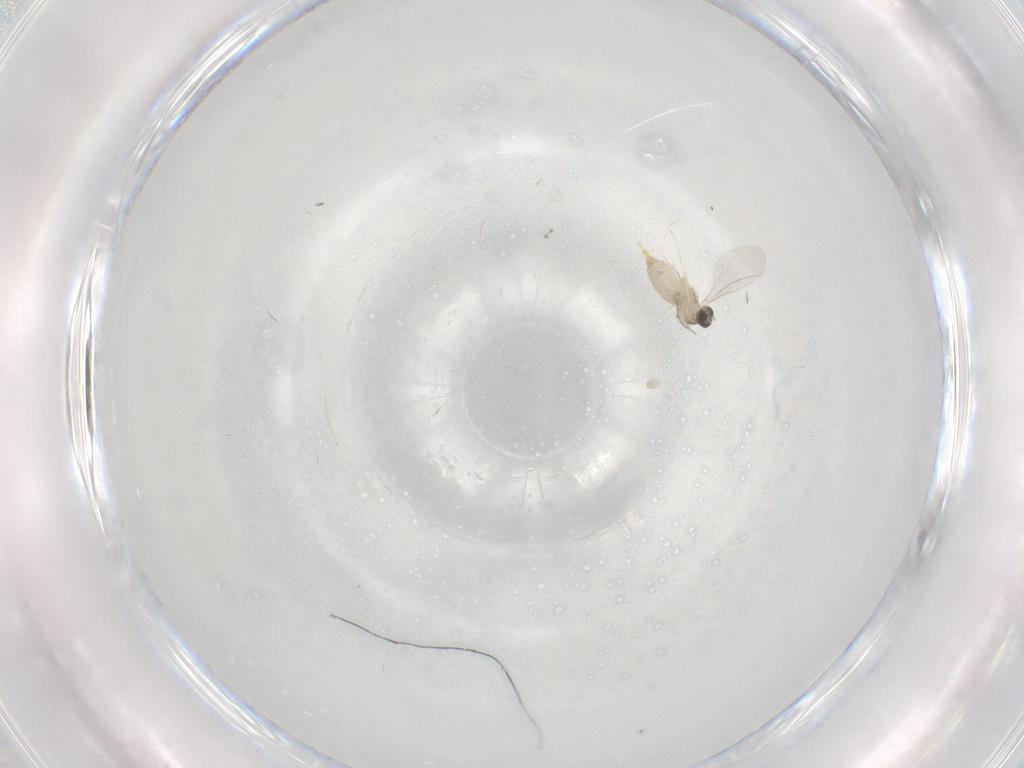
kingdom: Animalia
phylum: Arthropoda
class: Insecta
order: Diptera
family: Cecidomyiidae
